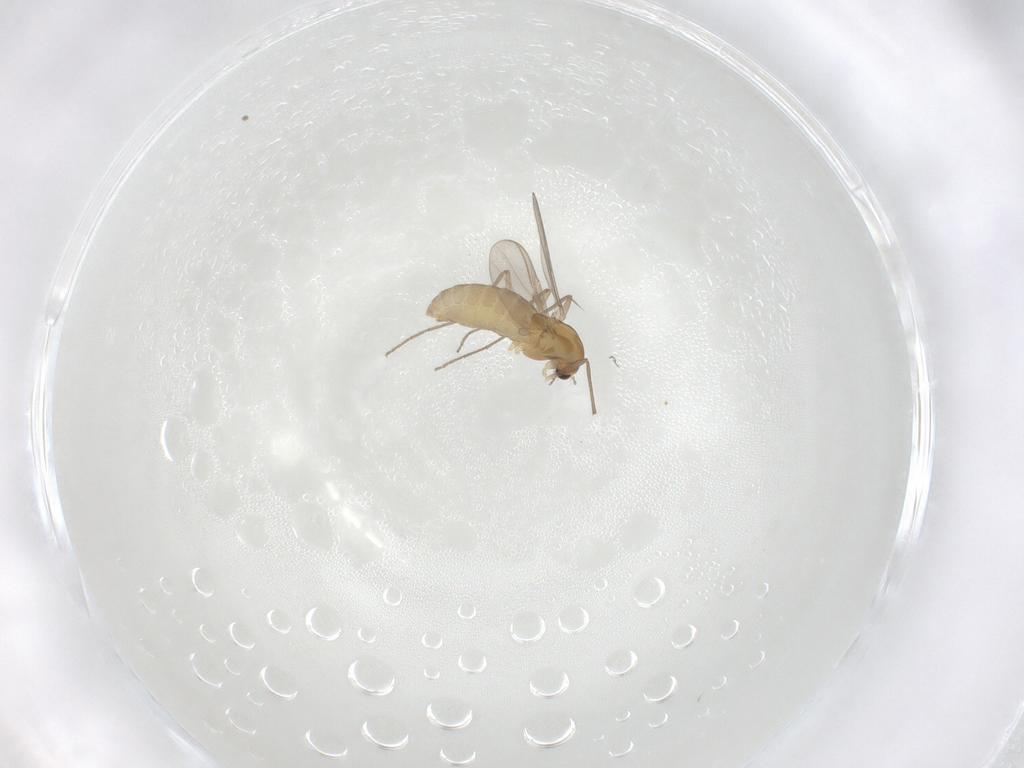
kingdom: Animalia
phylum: Arthropoda
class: Insecta
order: Diptera
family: Chironomidae
